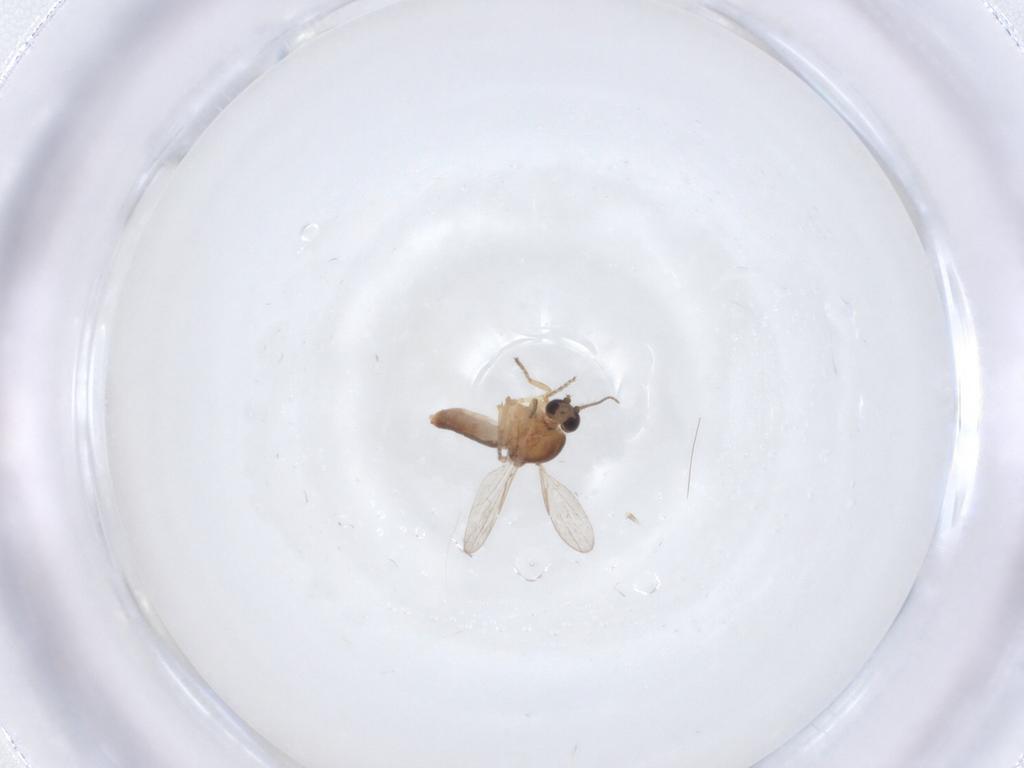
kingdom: Animalia
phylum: Arthropoda
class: Insecta
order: Diptera
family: Ceratopogonidae
